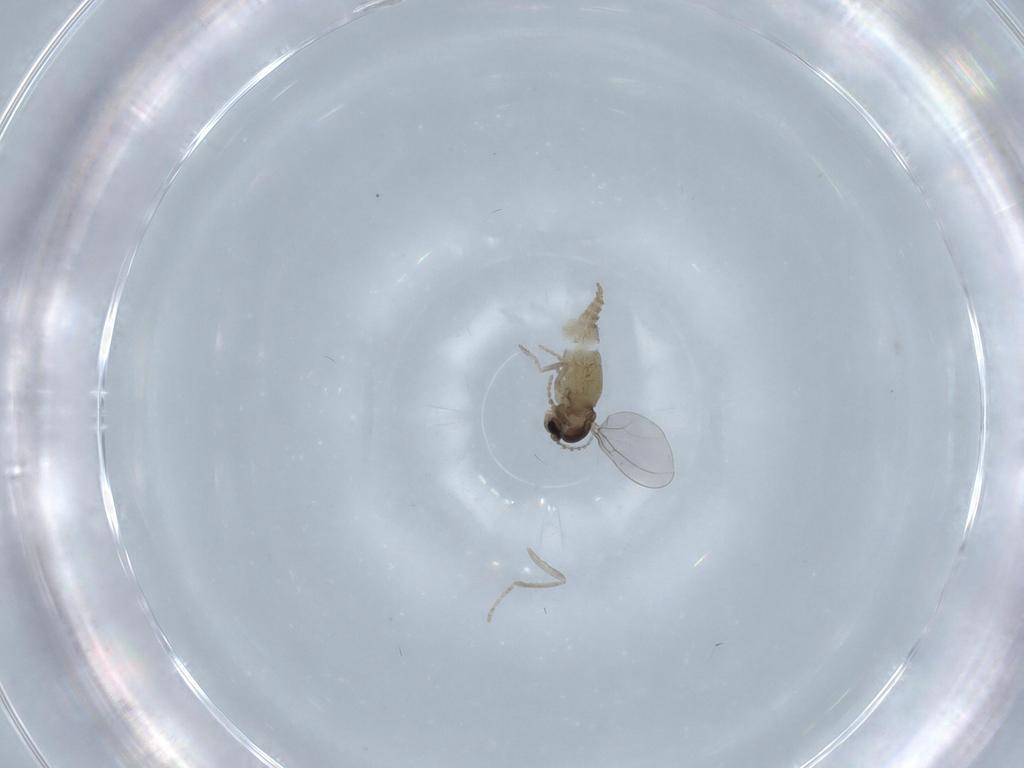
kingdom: Animalia
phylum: Arthropoda
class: Insecta
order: Diptera
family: Cecidomyiidae
